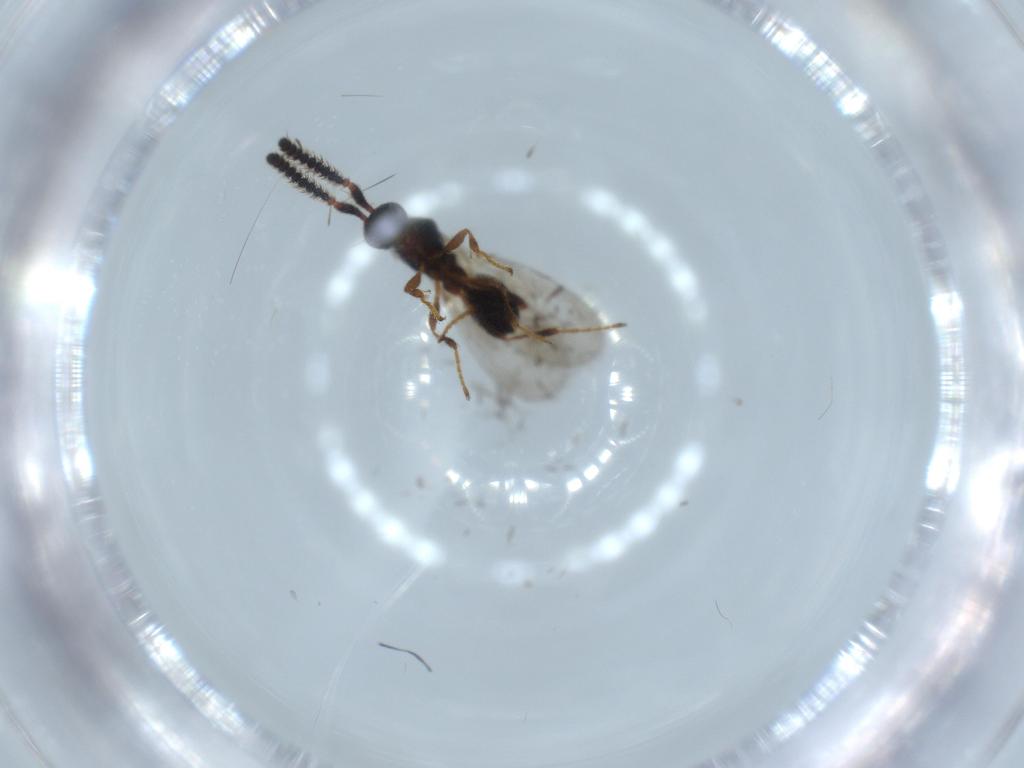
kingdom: Animalia
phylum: Arthropoda
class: Insecta
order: Hymenoptera
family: Diapriidae
